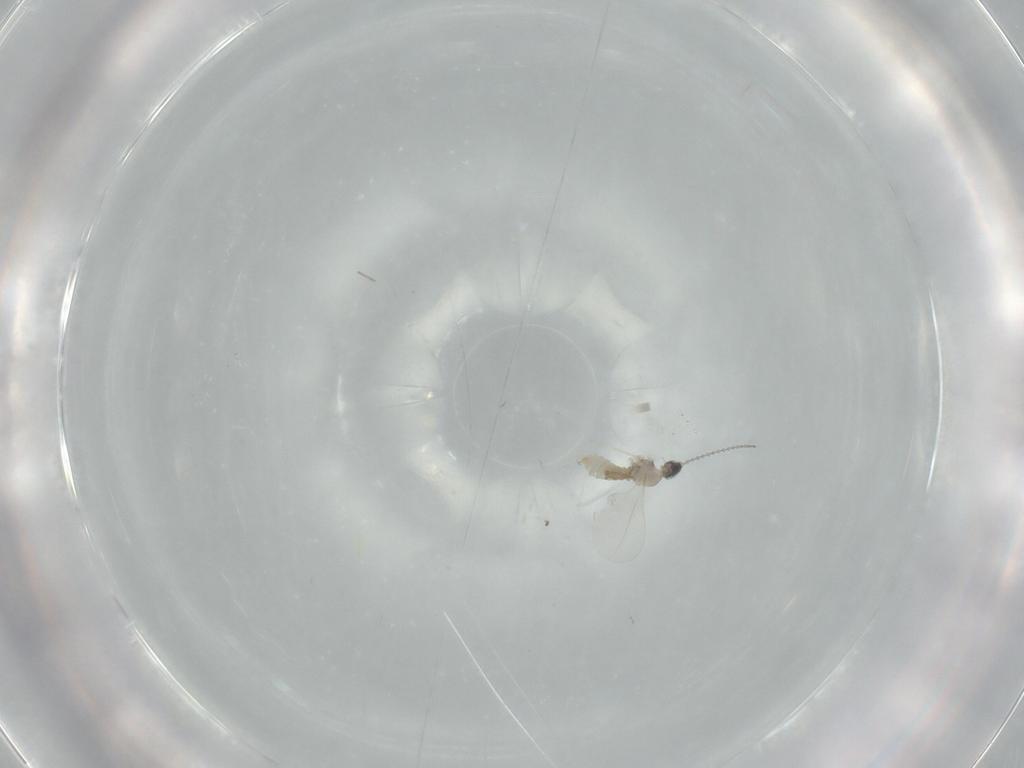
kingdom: Animalia
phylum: Arthropoda
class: Insecta
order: Diptera
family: Cecidomyiidae
